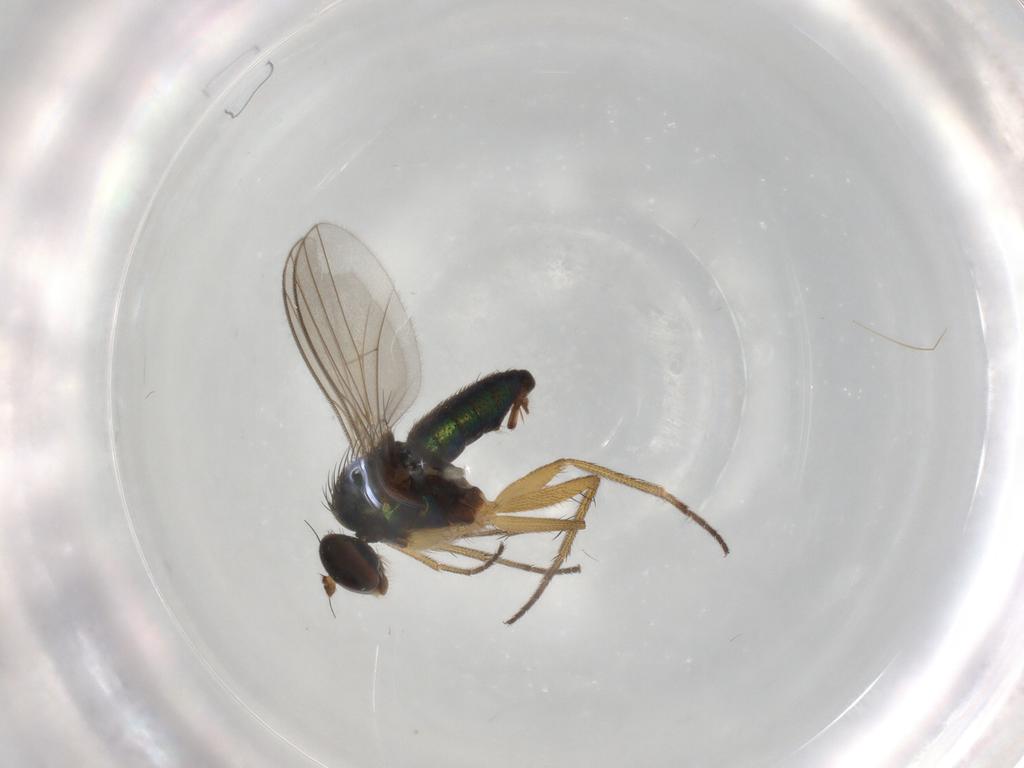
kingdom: Animalia
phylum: Arthropoda
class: Insecta
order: Diptera
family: Dolichopodidae
